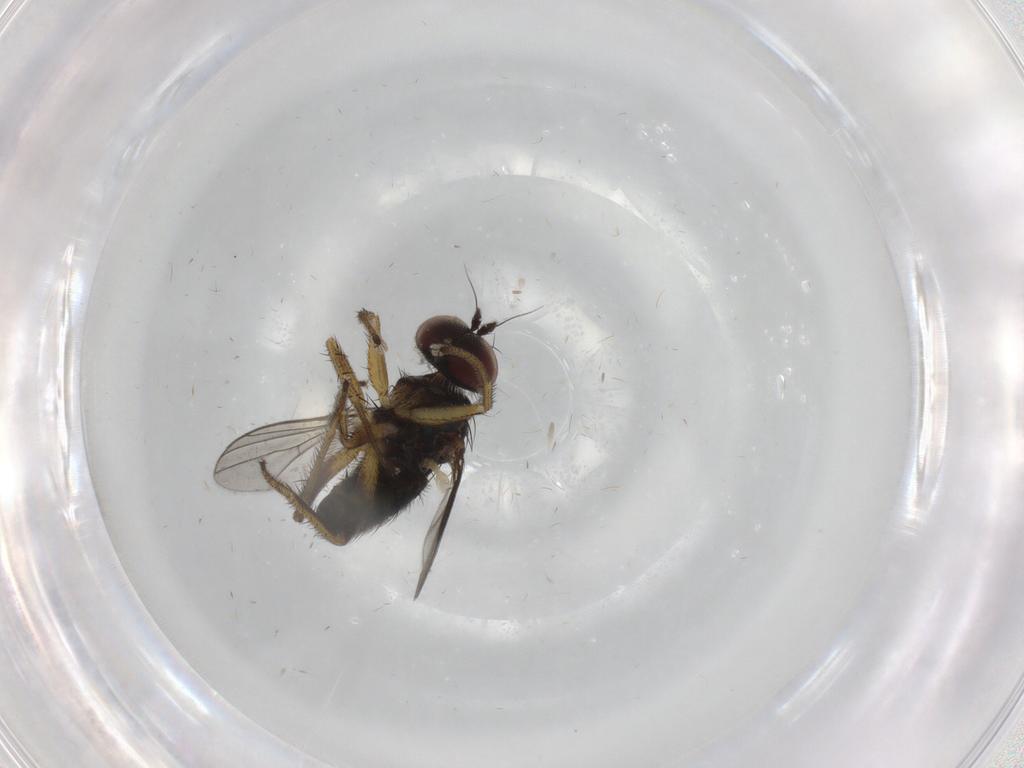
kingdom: Animalia
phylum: Arthropoda
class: Insecta
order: Diptera
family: Dolichopodidae
